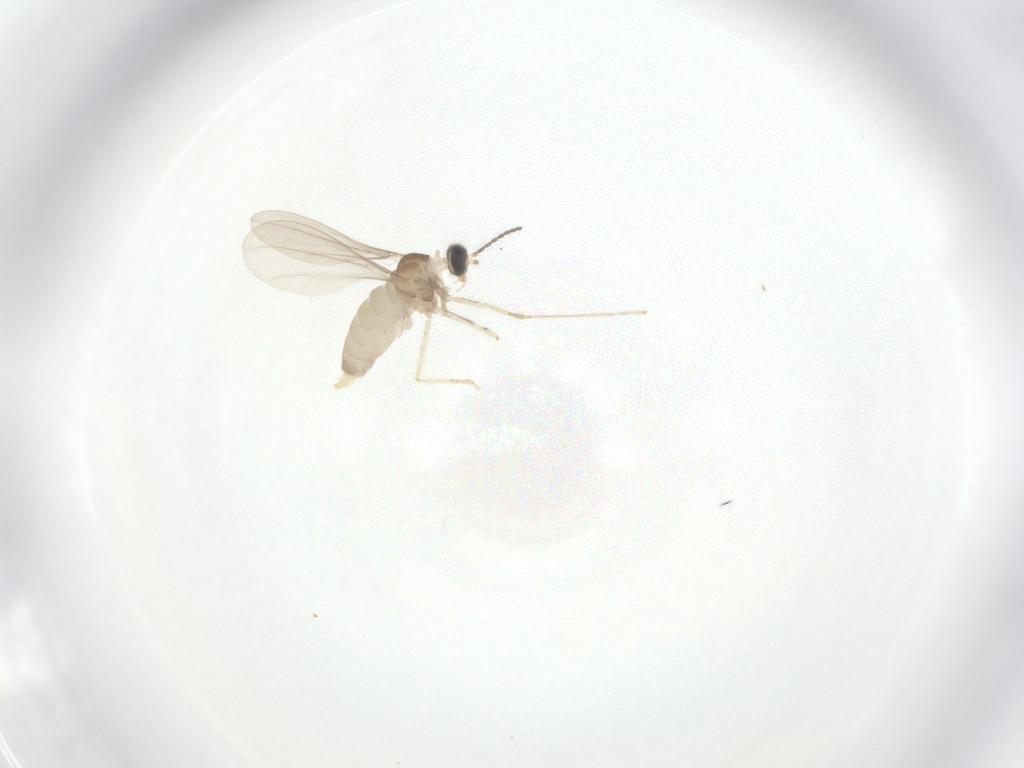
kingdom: Animalia
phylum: Arthropoda
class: Insecta
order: Diptera
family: Cecidomyiidae
